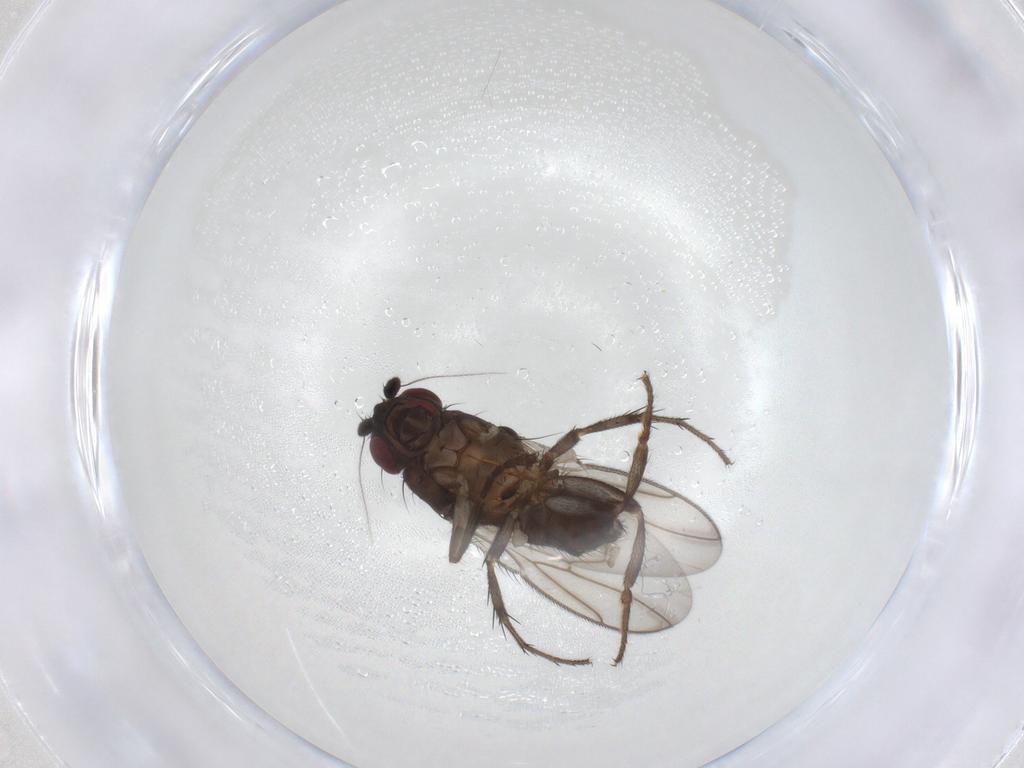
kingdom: Animalia
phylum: Arthropoda
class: Insecta
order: Diptera
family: Sphaeroceridae
